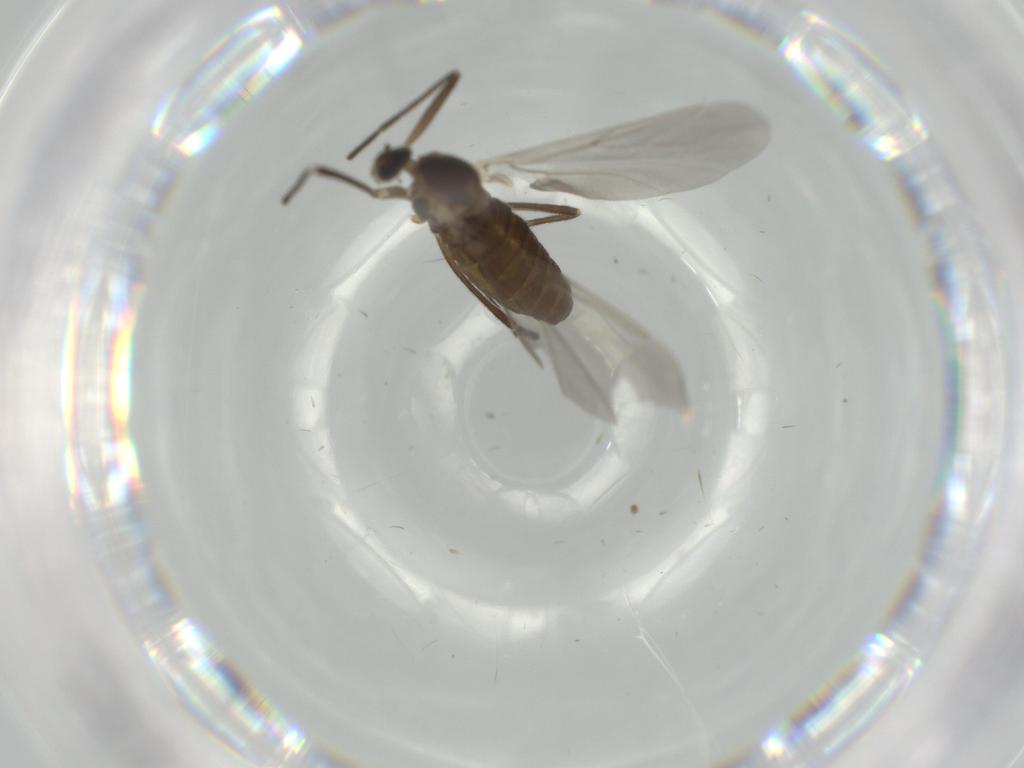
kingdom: Animalia
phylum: Arthropoda
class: Insecta
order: Diptera
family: Cecidomyiidae
